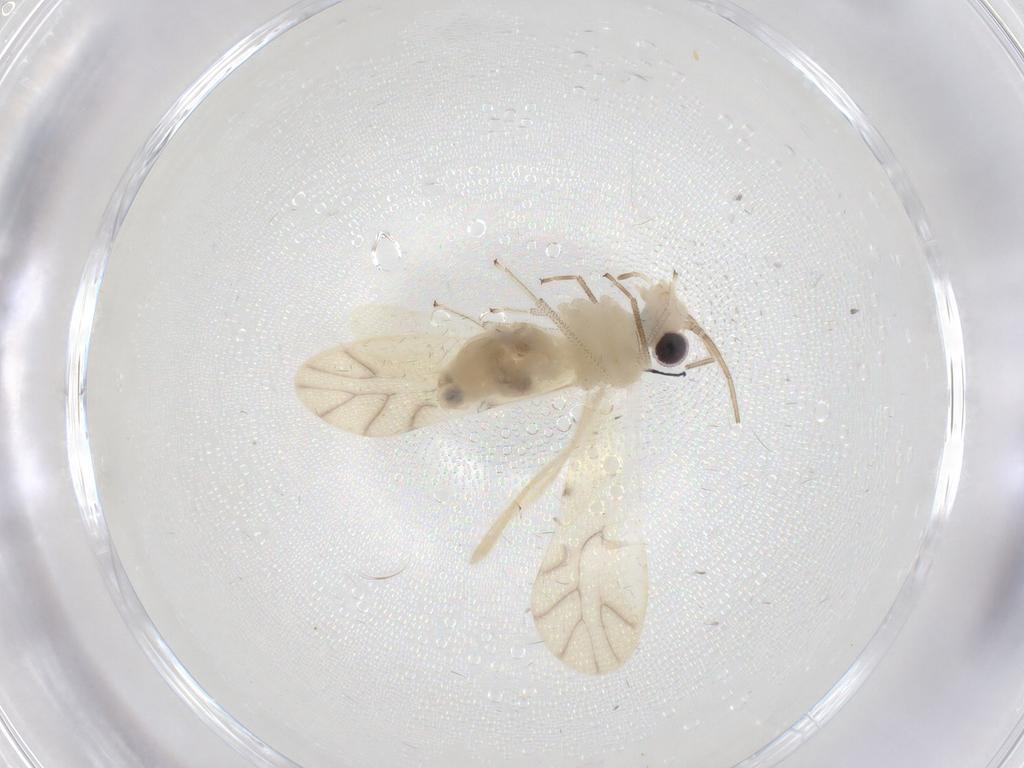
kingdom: Animalia
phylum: Arthropoda
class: Insecta
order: Psocodea
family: Caeciliusidae
